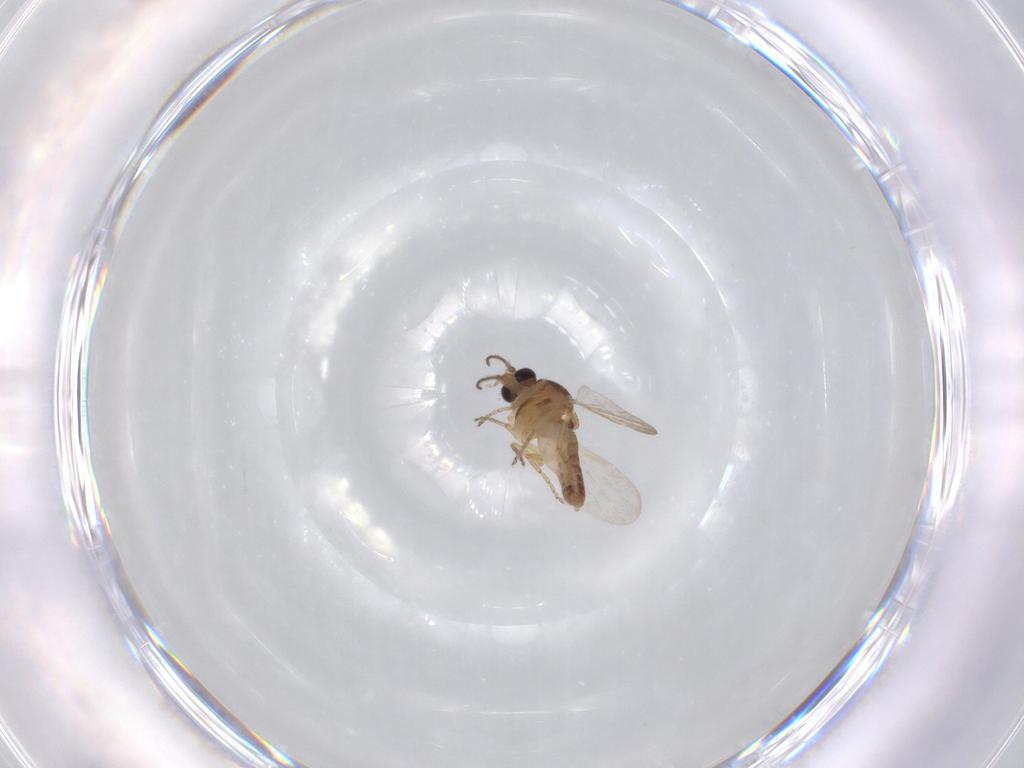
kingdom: Animalia
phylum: Arthropoda
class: Insecta
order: Diptera
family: Ceratopogonidae
